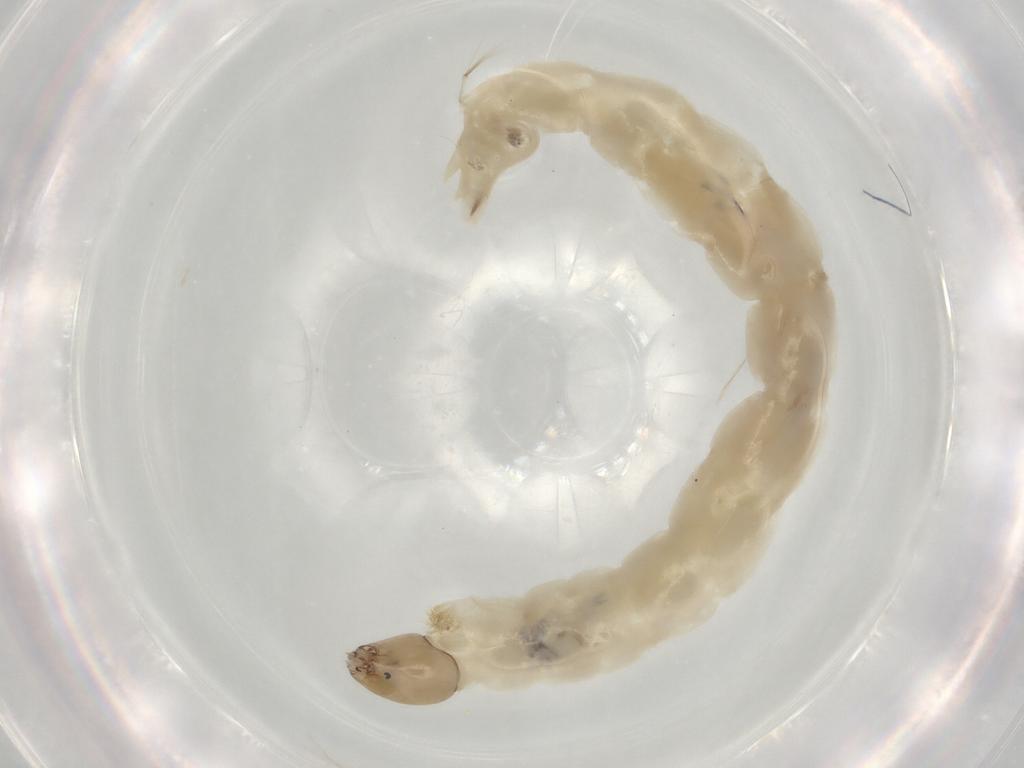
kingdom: Animalia
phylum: Arthropoda
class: Insecta
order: Diptera
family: Chironomidae
